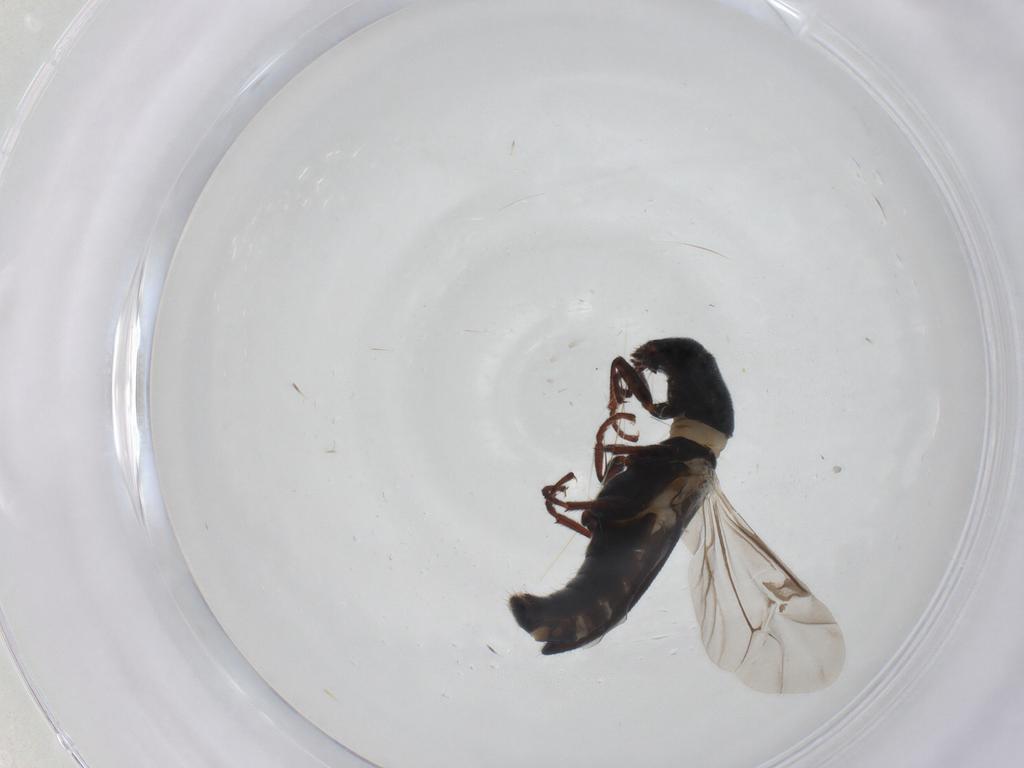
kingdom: Animalia
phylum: Arthropoda
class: Insecta
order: Coleoptera
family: Melyridae
